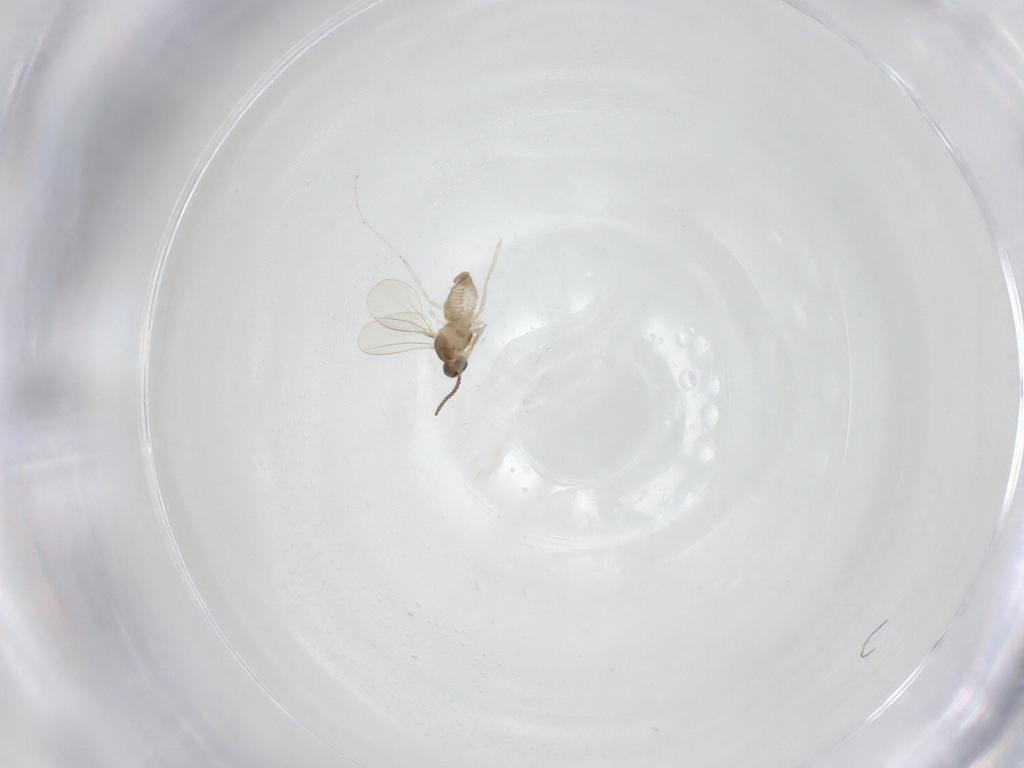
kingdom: Animalia
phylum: Arthropoda
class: Insecta
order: Diptera
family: Cecidomyiidae
